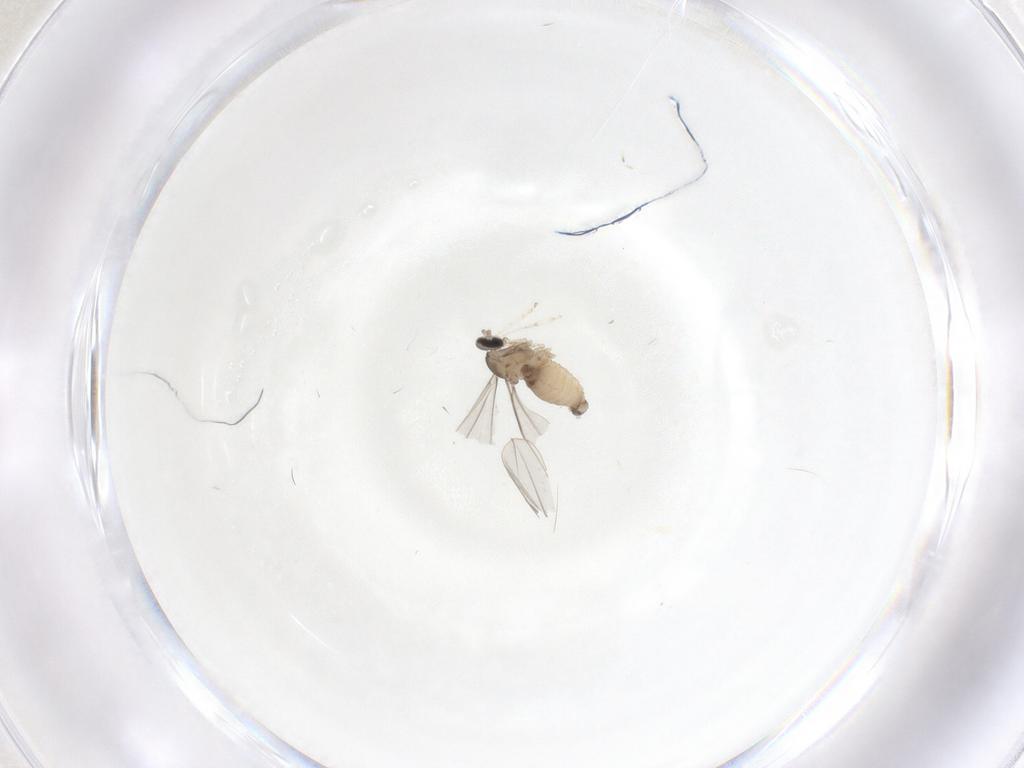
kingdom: Animalia
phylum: Arthropoda
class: Insecta
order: Diptera
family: Cecidomyiidae
